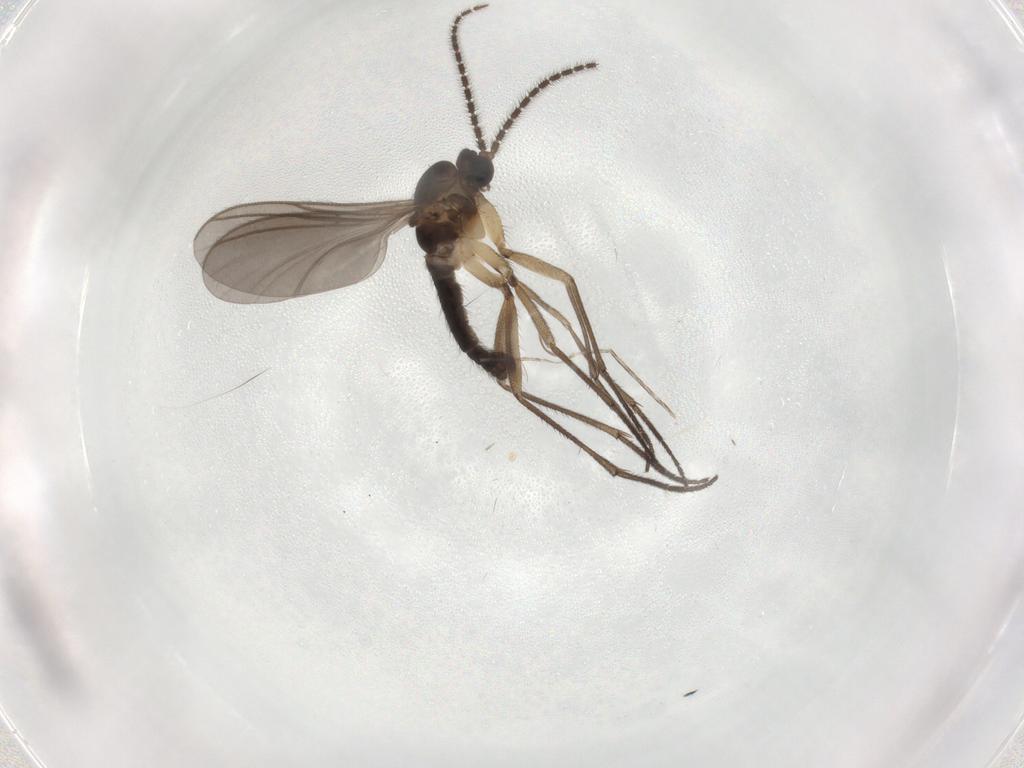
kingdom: Animalia
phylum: Arthropoda
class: Insecta
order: Diptera
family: Sciaridae
